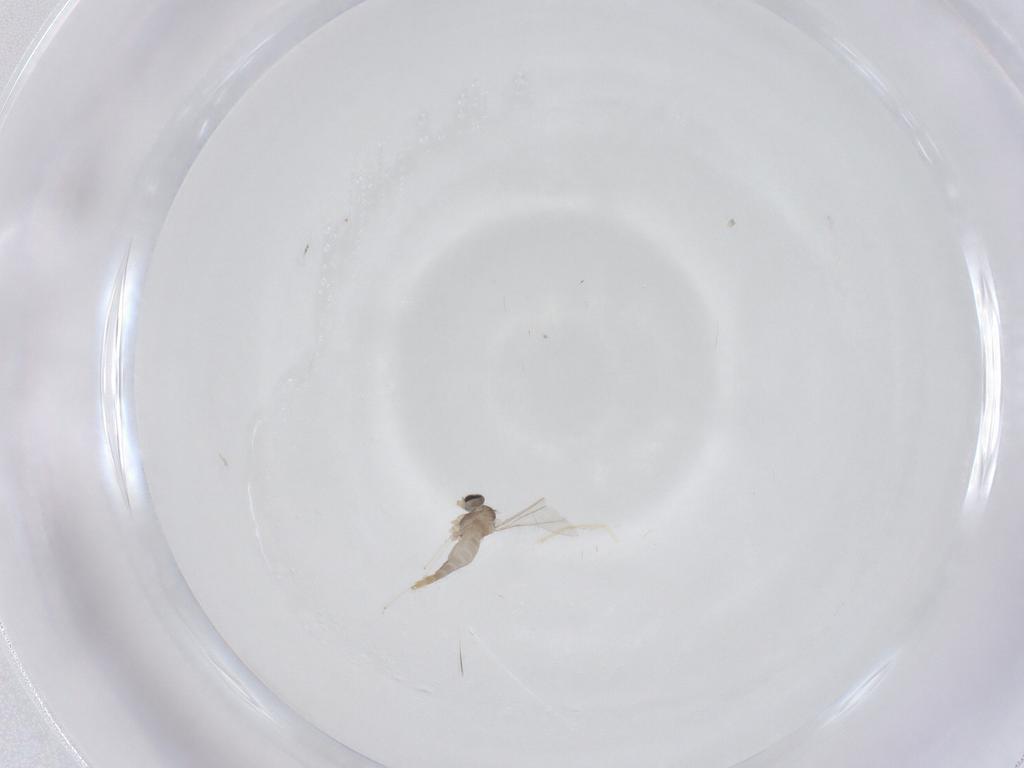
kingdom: Animalia
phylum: Arthropoda
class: Insecta
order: Diptera
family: Cecidomyiidae
